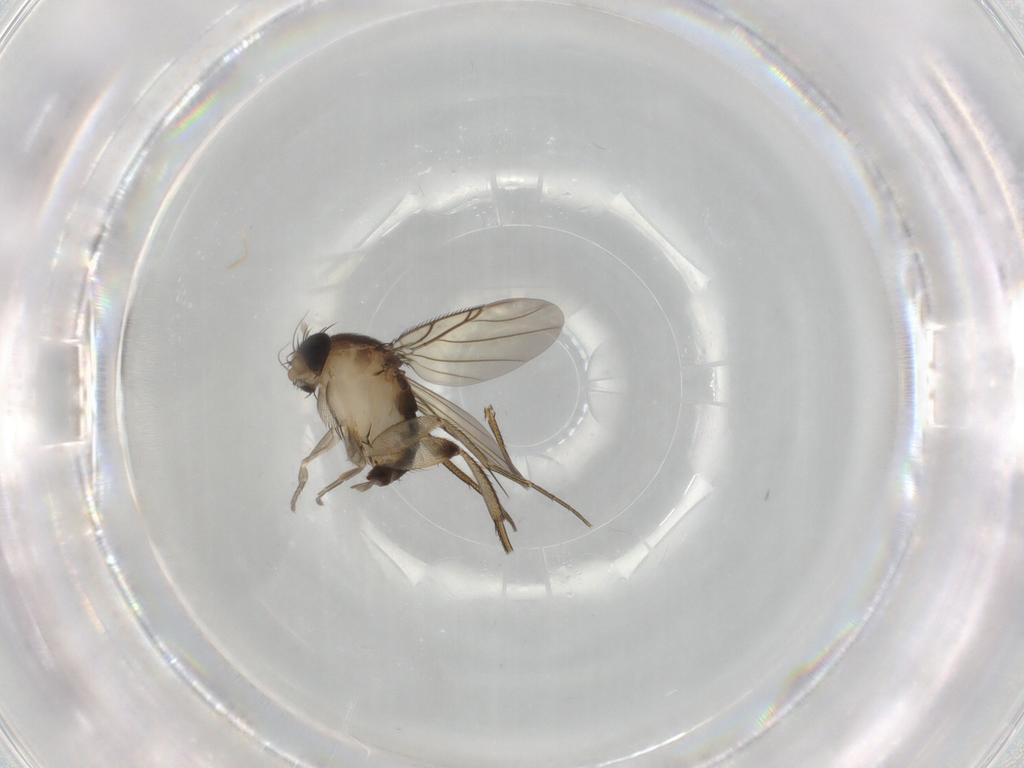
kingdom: Animalia
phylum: Arthropoda
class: Insecta
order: Diptera
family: Phoridae
